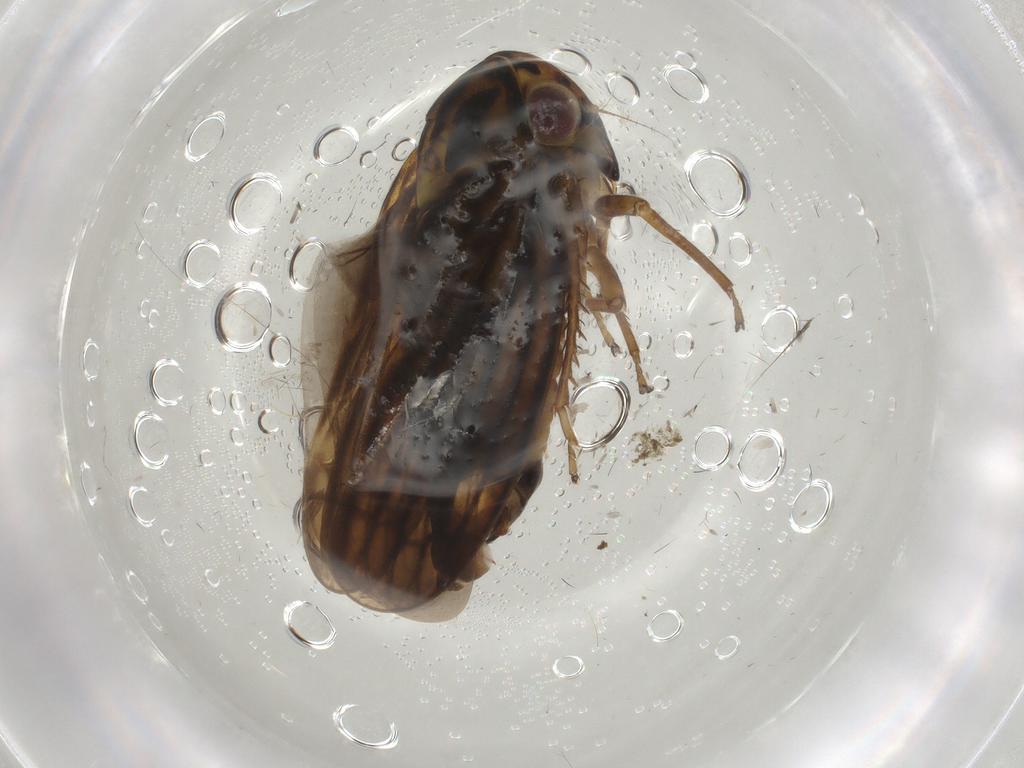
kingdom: Animalia
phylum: Arthropoda
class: Insecta
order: Hemiptera
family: Cicadellidae
